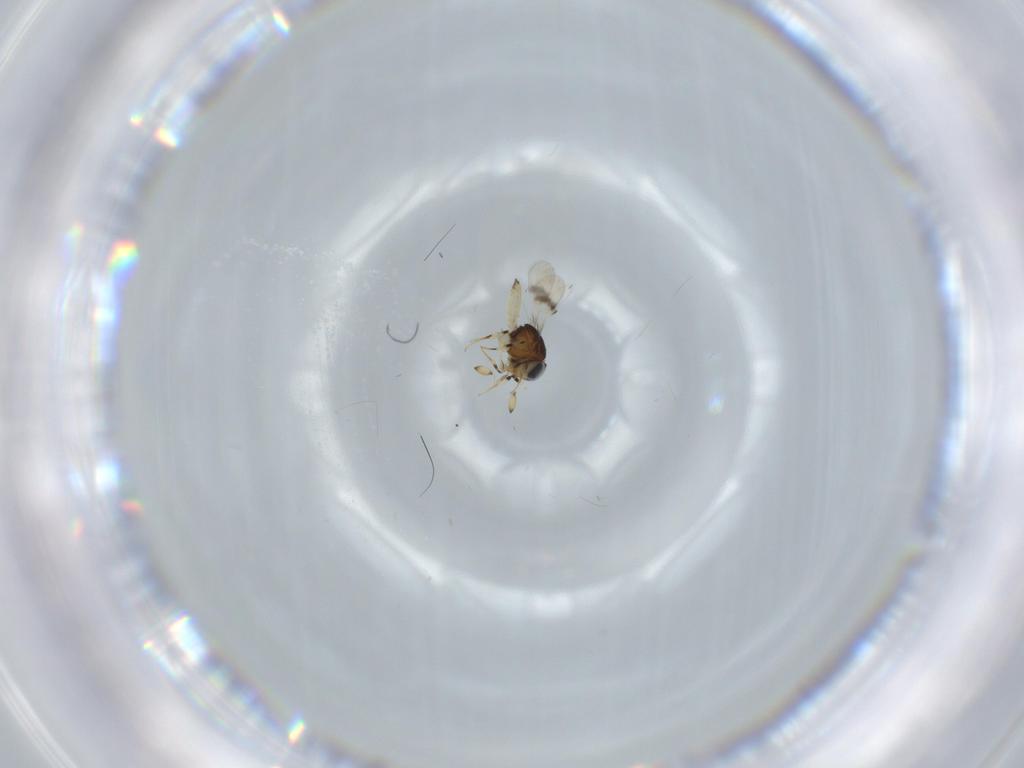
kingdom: Animalia
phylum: Arthropoda
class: Insecta
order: Hymenoptera
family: Scelionidae
